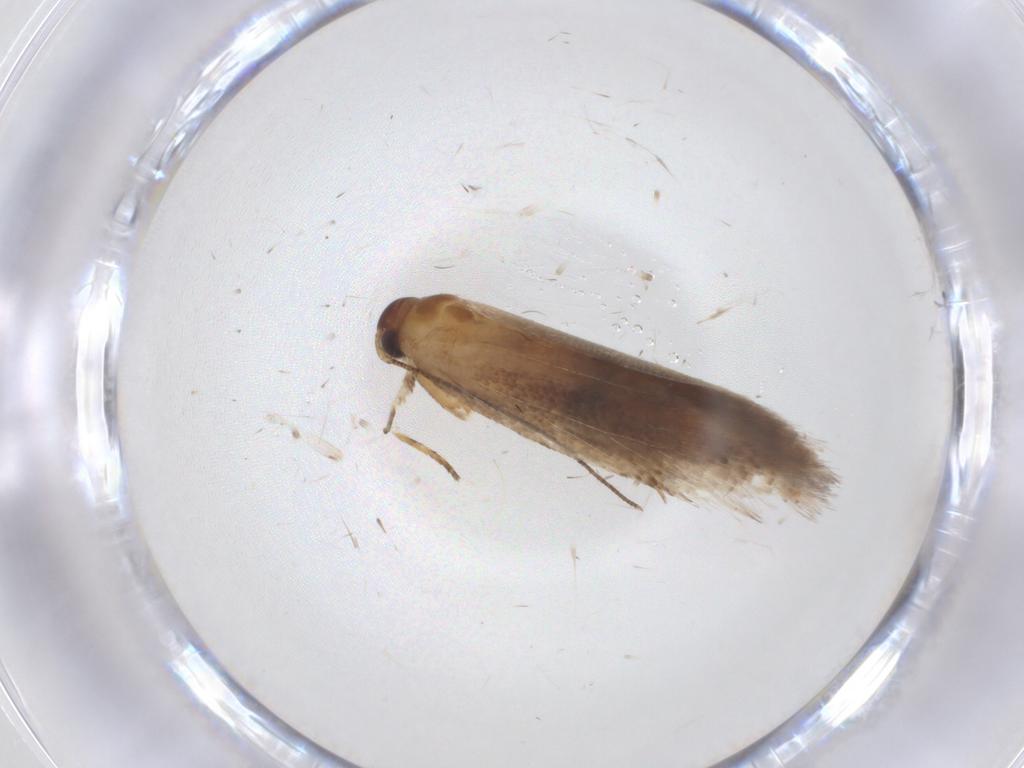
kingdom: Animalia
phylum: Arthropoda
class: Insecta
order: Lepidoptera
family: Gelechiidae
